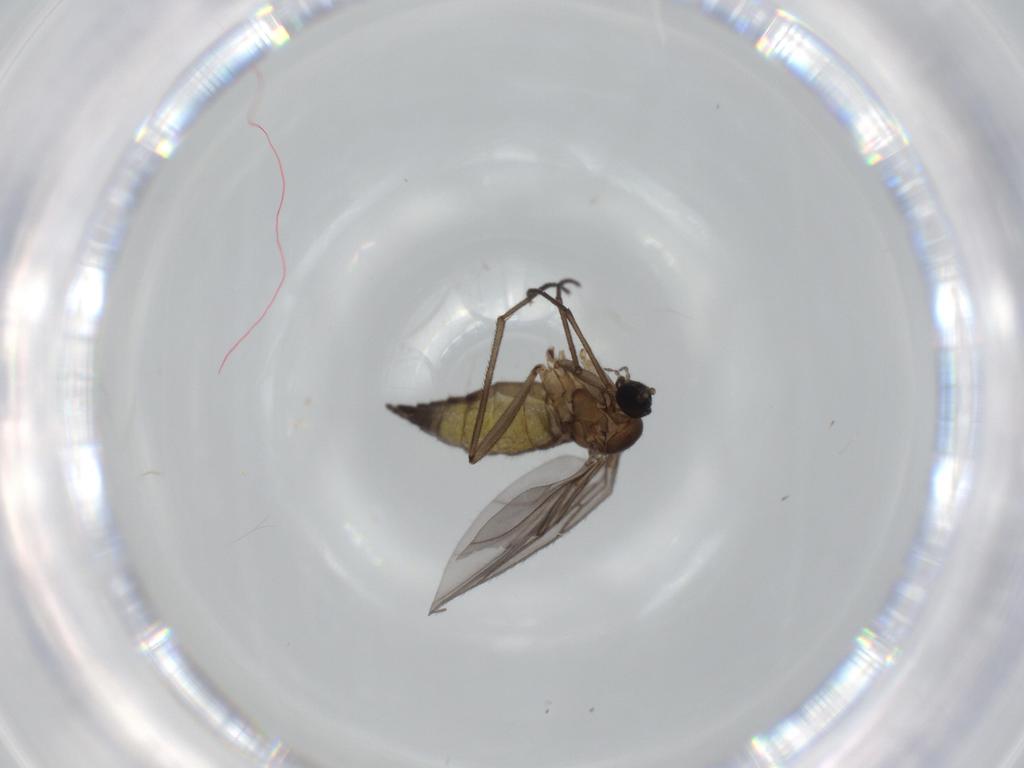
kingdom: Animalia
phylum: Arthropoda
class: Insecta
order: Diptera
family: Sciaridae
